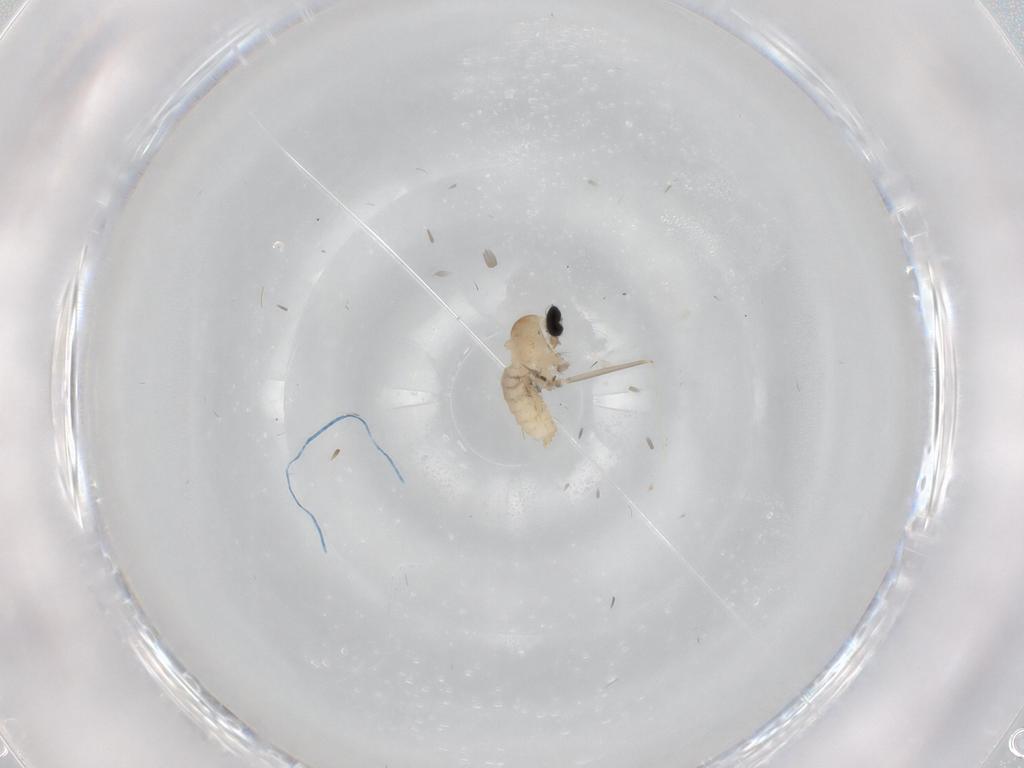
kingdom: Animalia
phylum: Arthropoda
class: Insecta
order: Diptera
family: Cecidomyiidae
